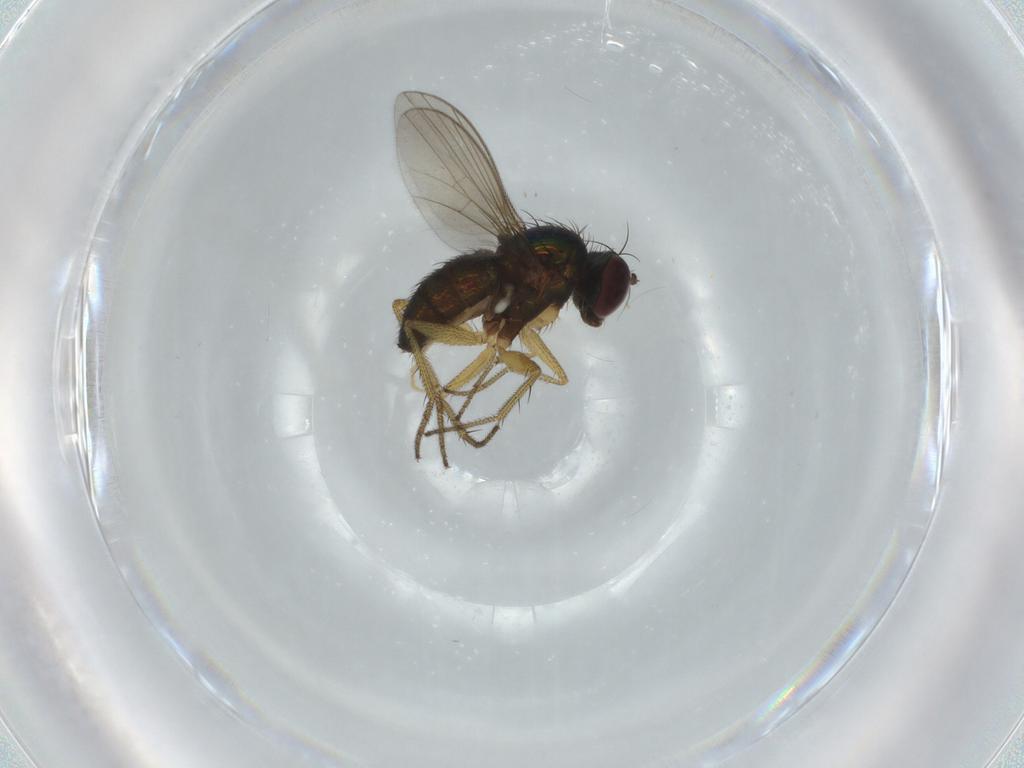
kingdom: Animalia
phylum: Arthropoda
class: Insecta
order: Diptera
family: Dolichopodidae
